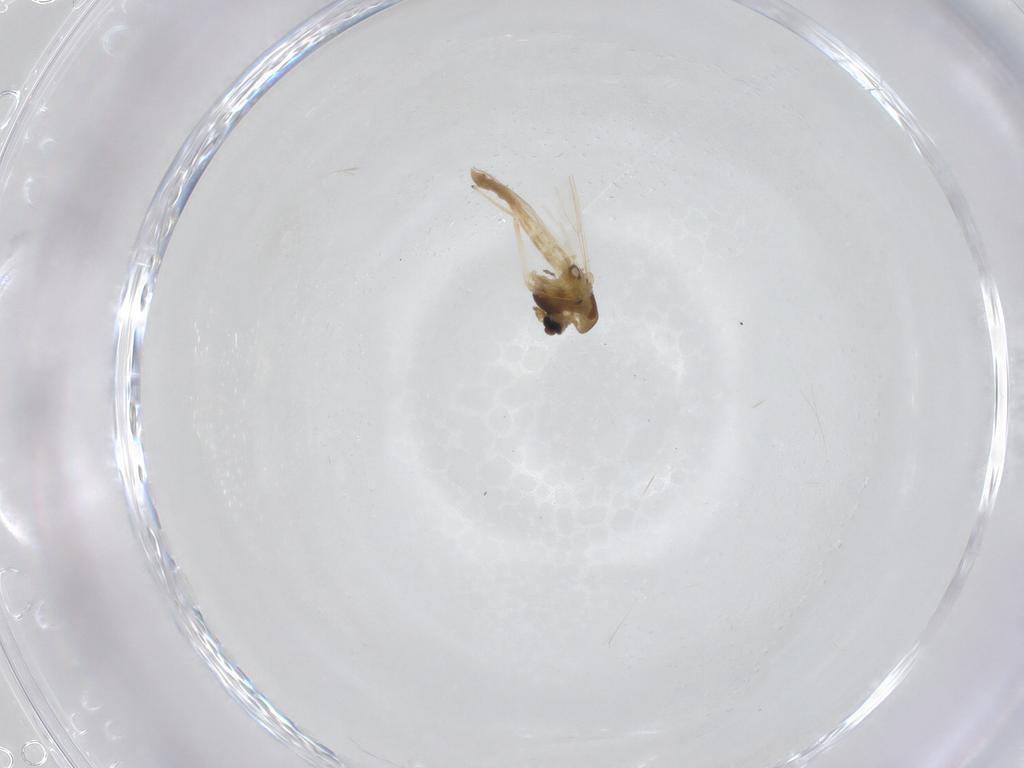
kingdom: Animalia
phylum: Arthropoda
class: Insecta
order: Diptera
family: Chironomidae
